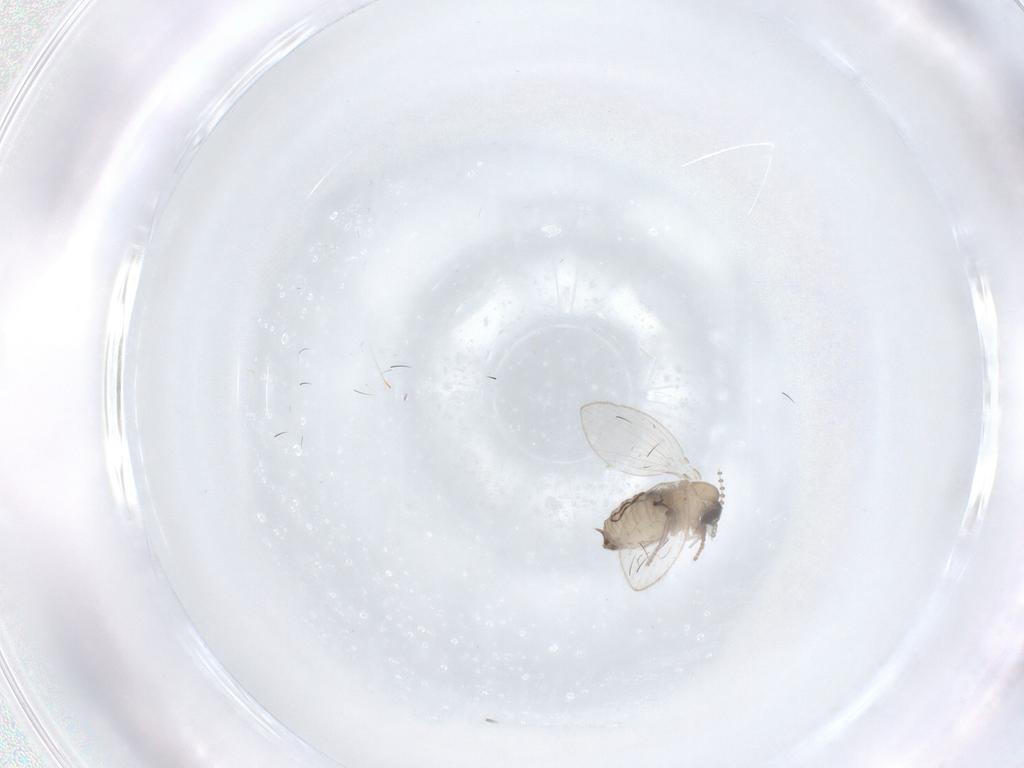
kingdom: Animalia
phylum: Arthropoda
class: Insecta
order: Diptera
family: Psychodidae
